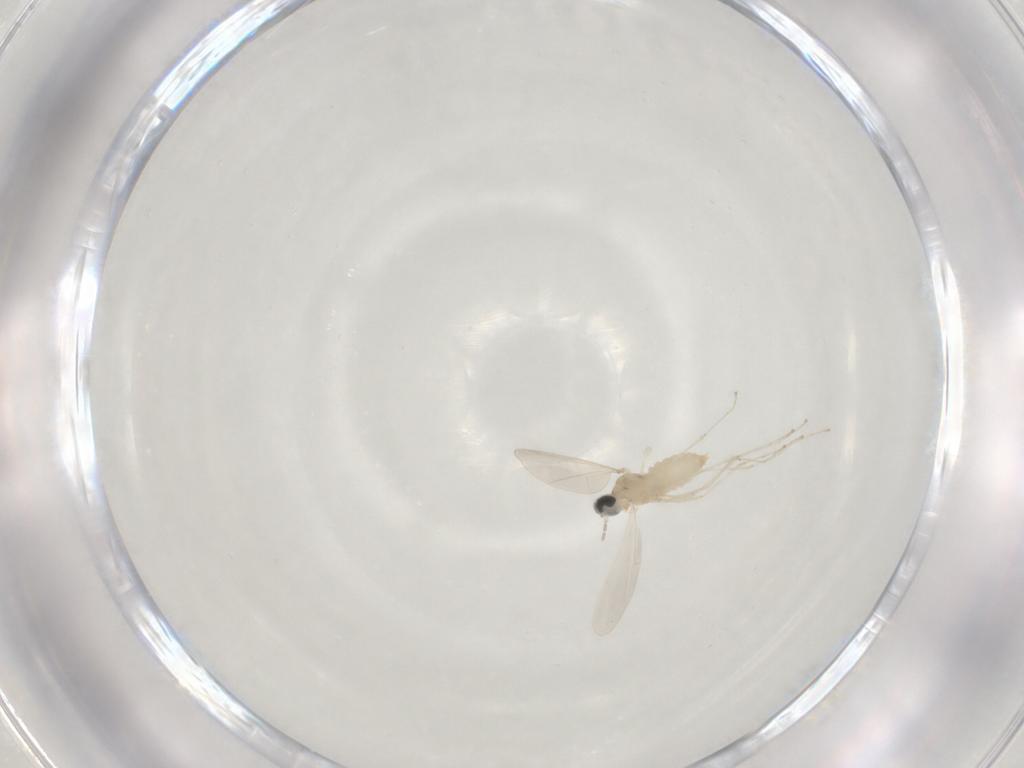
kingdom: Animalia
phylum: Arthropoda
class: Insecta
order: Diptera
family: Cecidomyiidae
